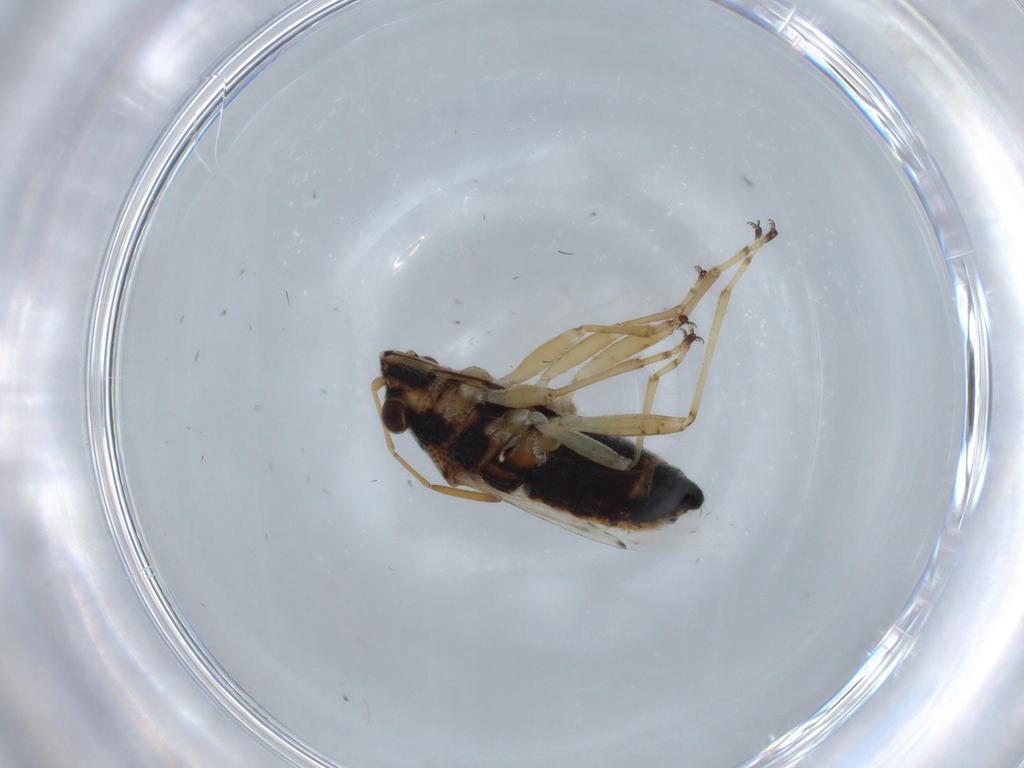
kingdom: Animalia
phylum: Arthropoda
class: Insecta
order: Hemiptera
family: Lygaeidae
